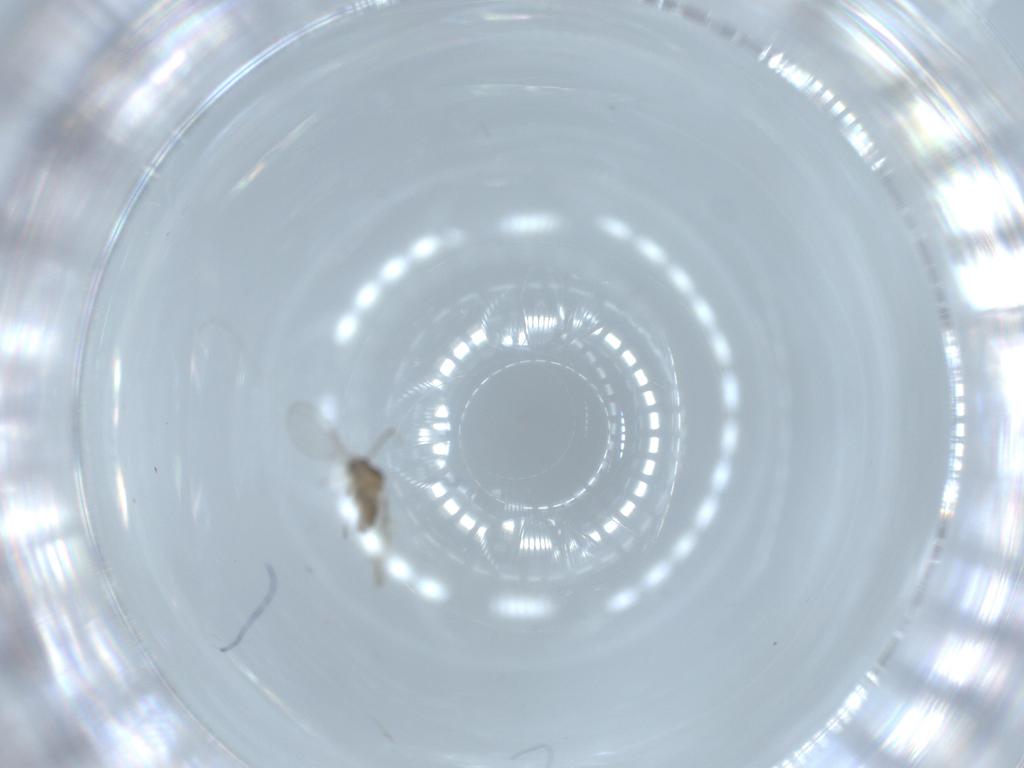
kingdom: Animalia
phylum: Arthropoda
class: Insecta
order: Diptera
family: Cecidomyiidae
